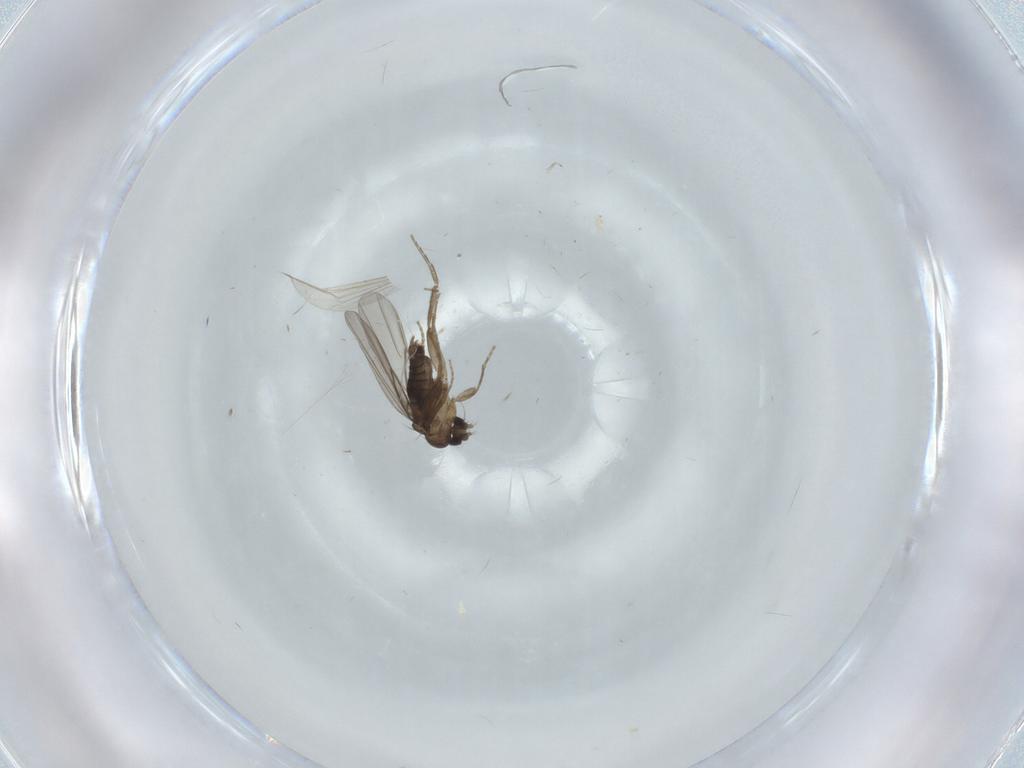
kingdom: Animalia
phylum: Arthropoda
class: Insecta
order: Diptera
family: Phoridae
